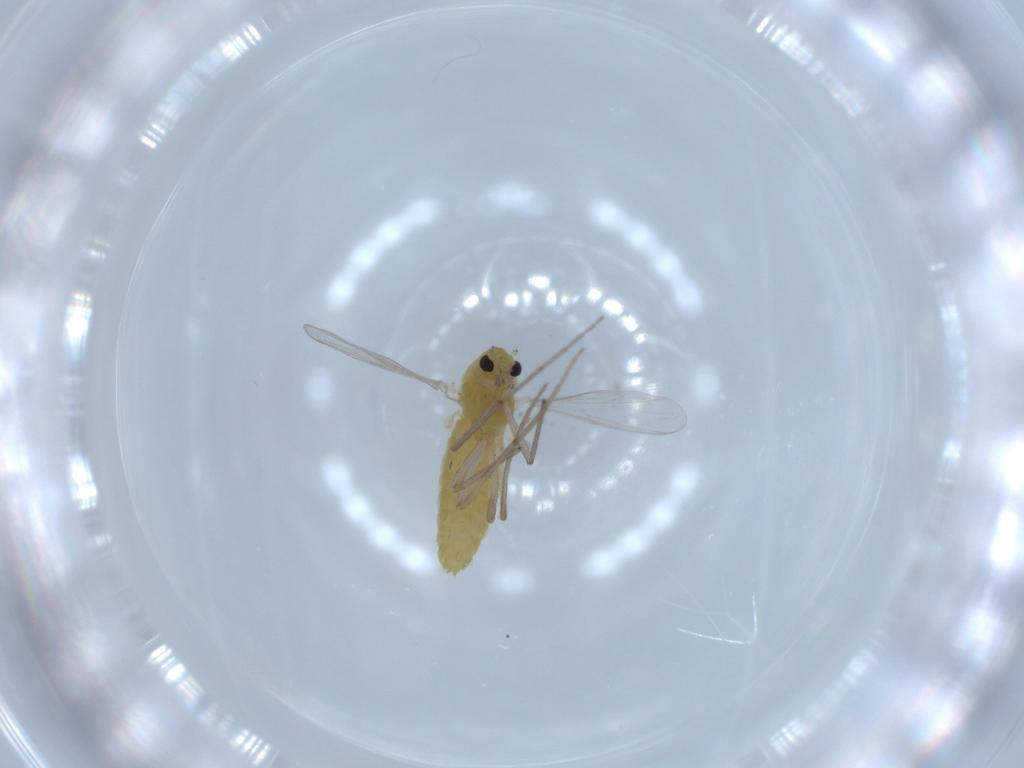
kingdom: Animalia
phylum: Arthropoda
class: Insecta
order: Diptera
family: Chironomidae
